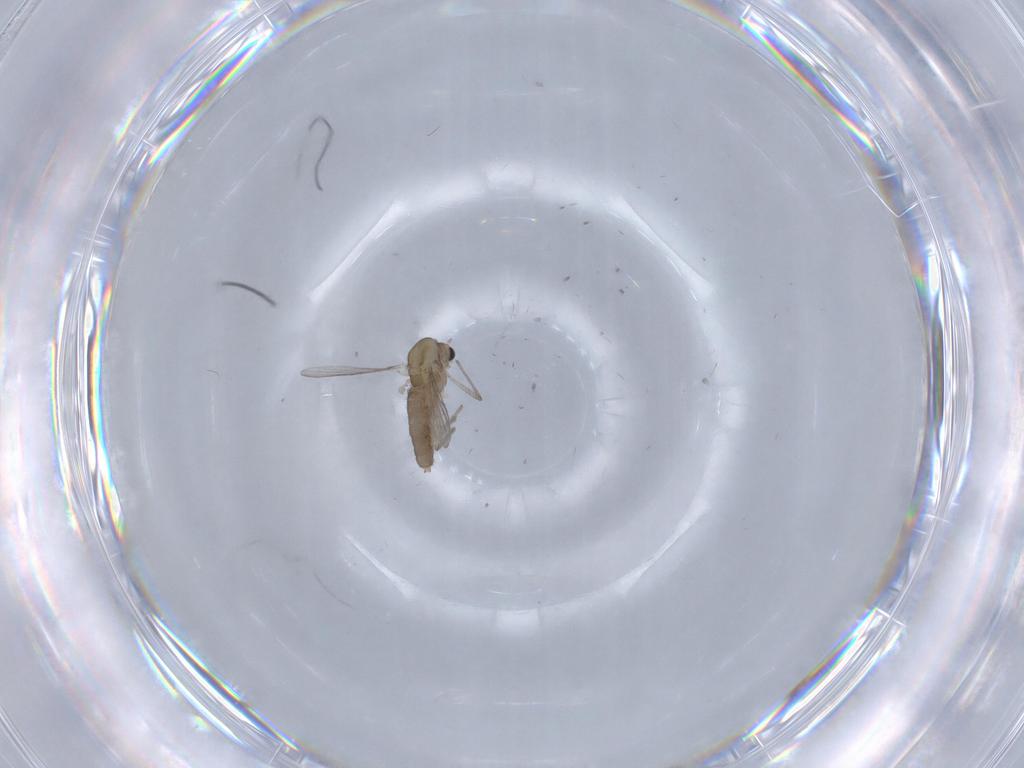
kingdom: Animalia
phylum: Arthropoda
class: Insecta
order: Diptera
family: Chironomidae
